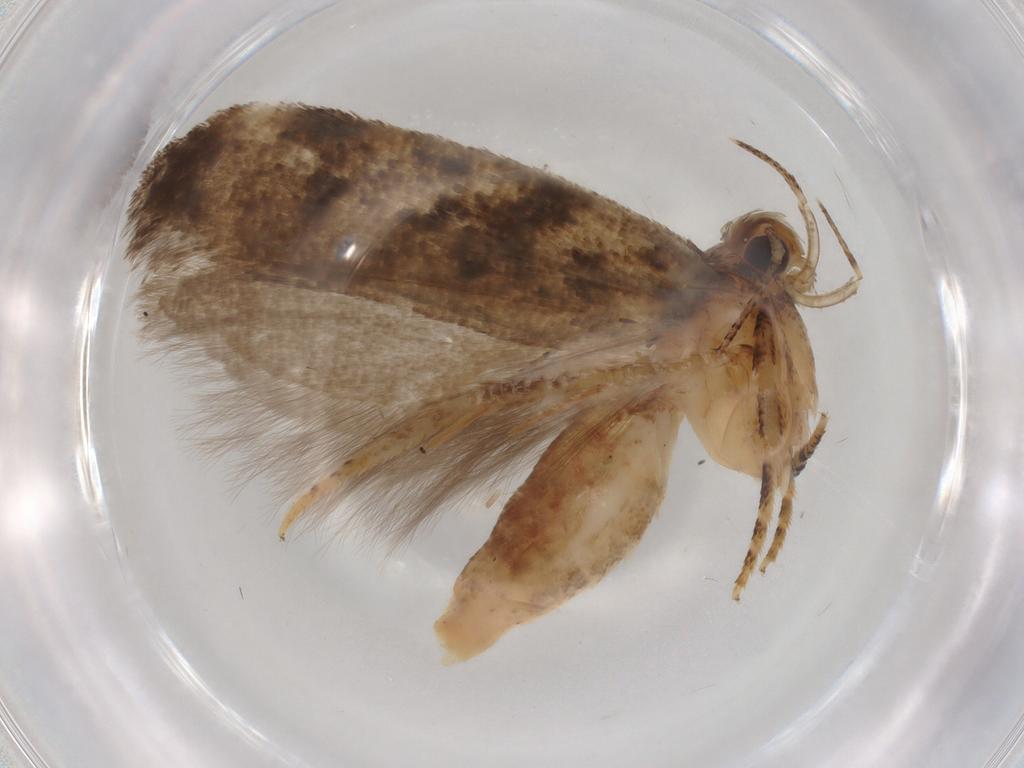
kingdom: Animalia
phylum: Arthropoda
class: Insecta
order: Lepidoptera
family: Gelechiidae
